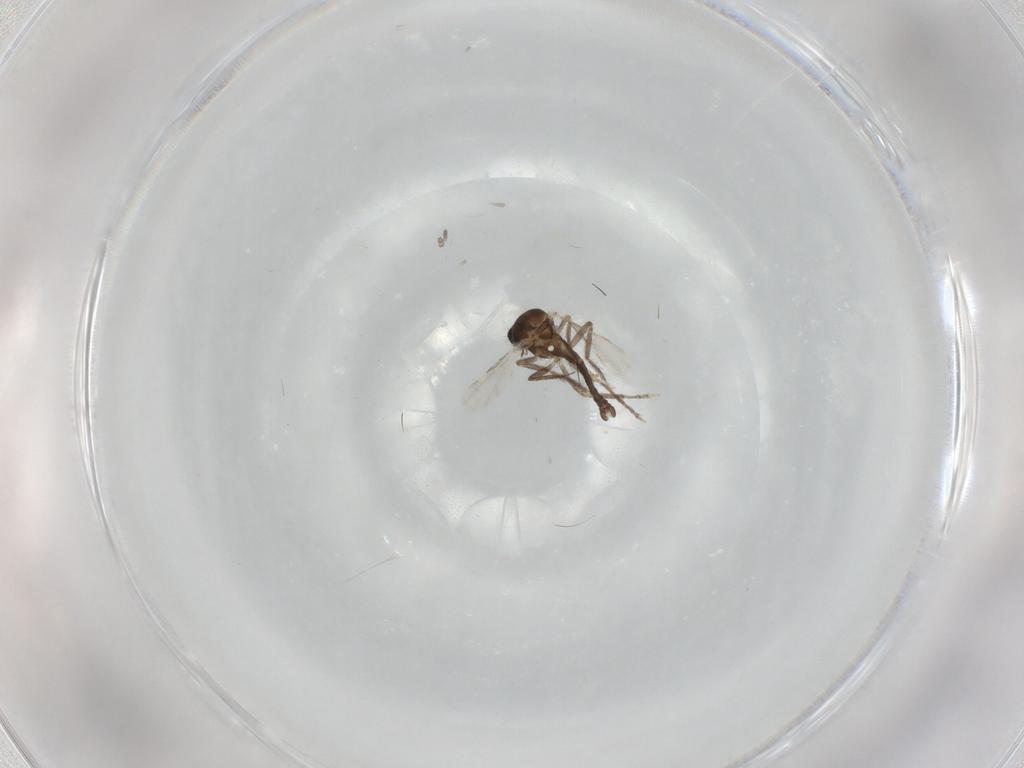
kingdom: Animalia
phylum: Arthropoda
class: Insecta
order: Diptera
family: Ceratopogonidae
